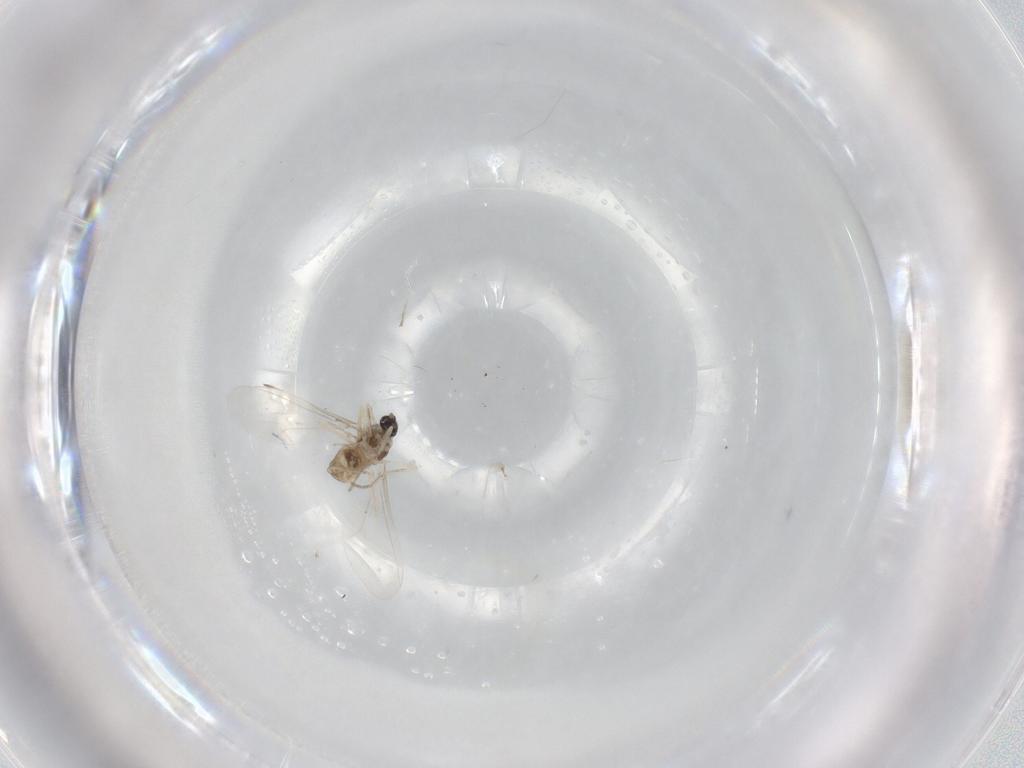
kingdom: Animalia
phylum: Arthropoda
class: Insecta
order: Diptera
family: Cecidomyiidae
